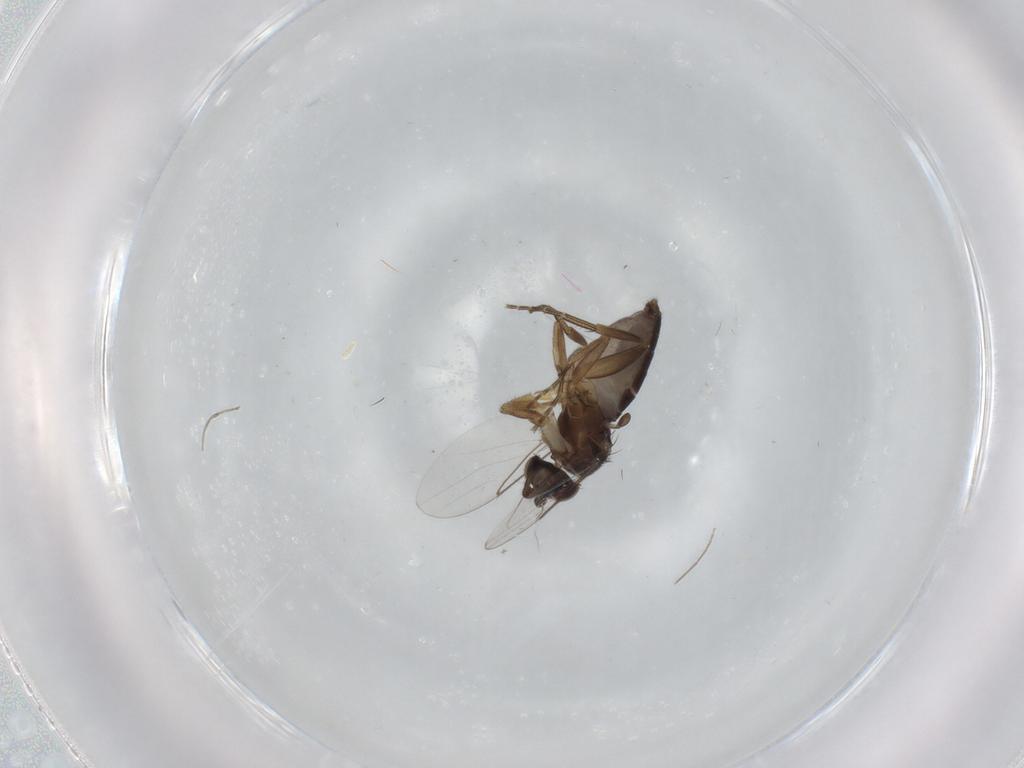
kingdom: Animalia
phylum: Arthropoda
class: Insecta
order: Diptera
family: Phoridae
